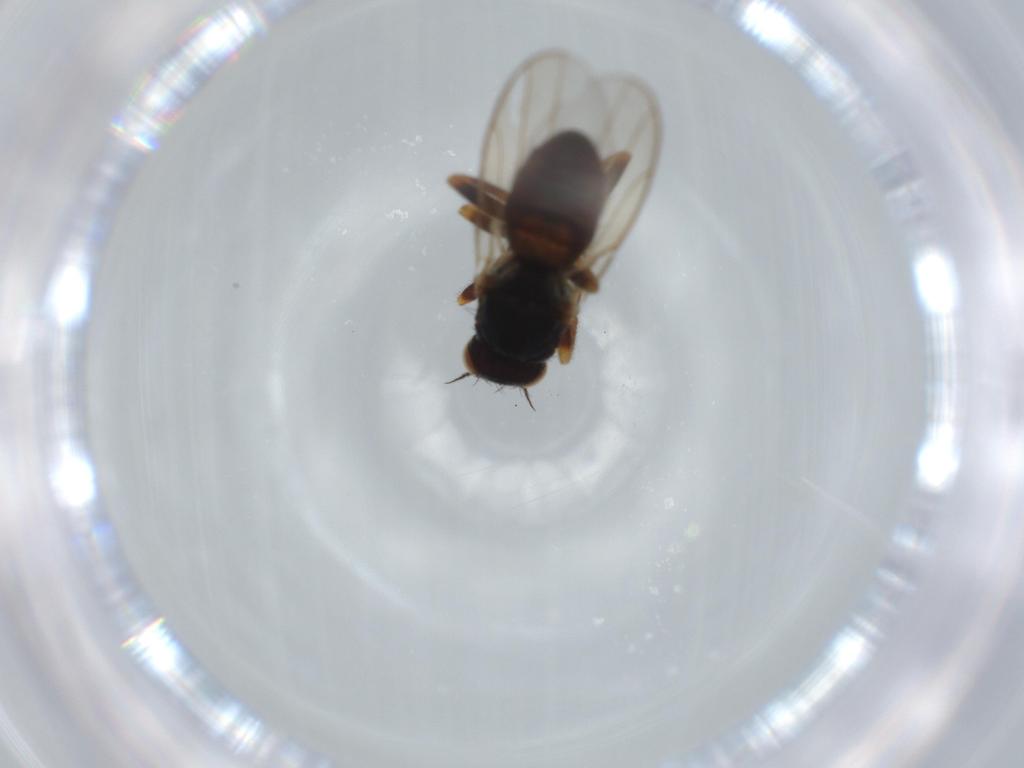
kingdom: Animalia
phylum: Arthropoda
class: Insecta
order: Diptera
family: Chloropidae
